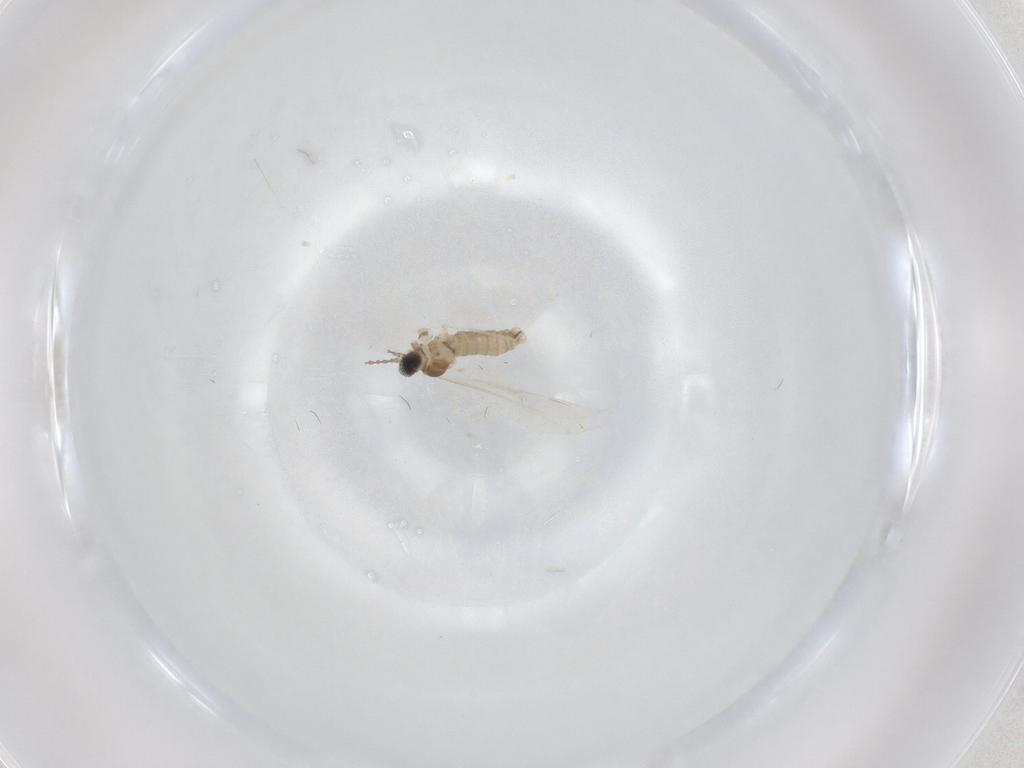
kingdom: Animalia
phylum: Arthropoda
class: Insecta
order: Diptera
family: Cecidomyiidae
